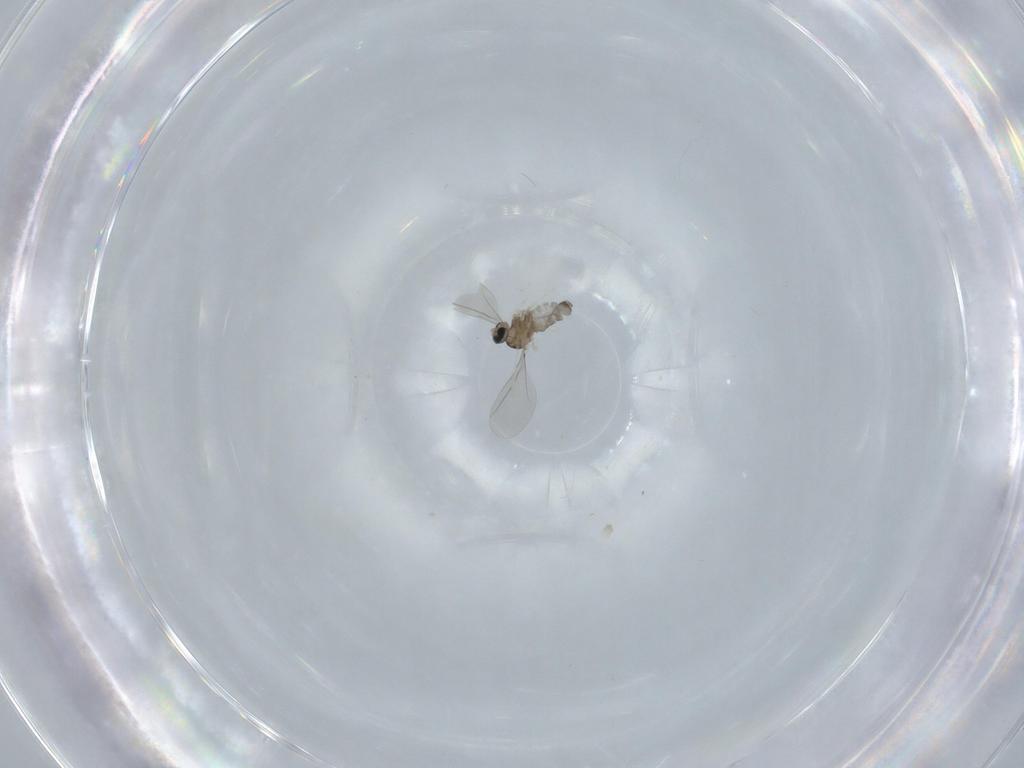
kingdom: Animalia
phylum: Arthropoda
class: Insecta
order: Diptera
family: Cecidomyiidae
